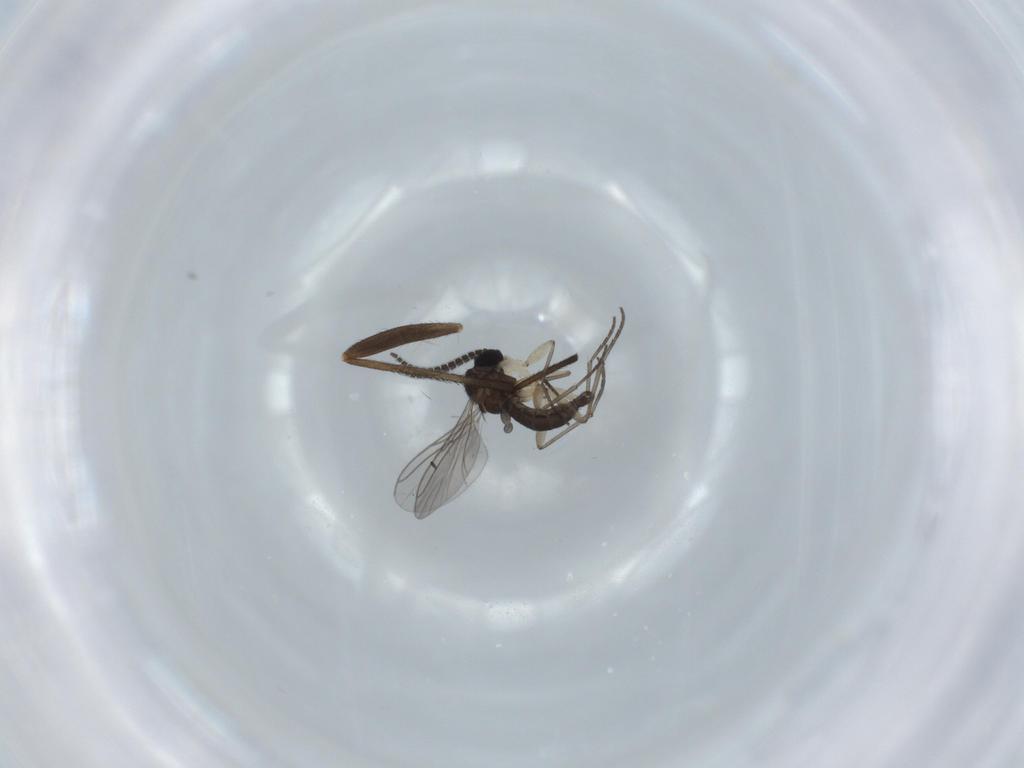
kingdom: Animalia
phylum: Arthropoda
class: Insecta
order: Diptera
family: Sciaridae
